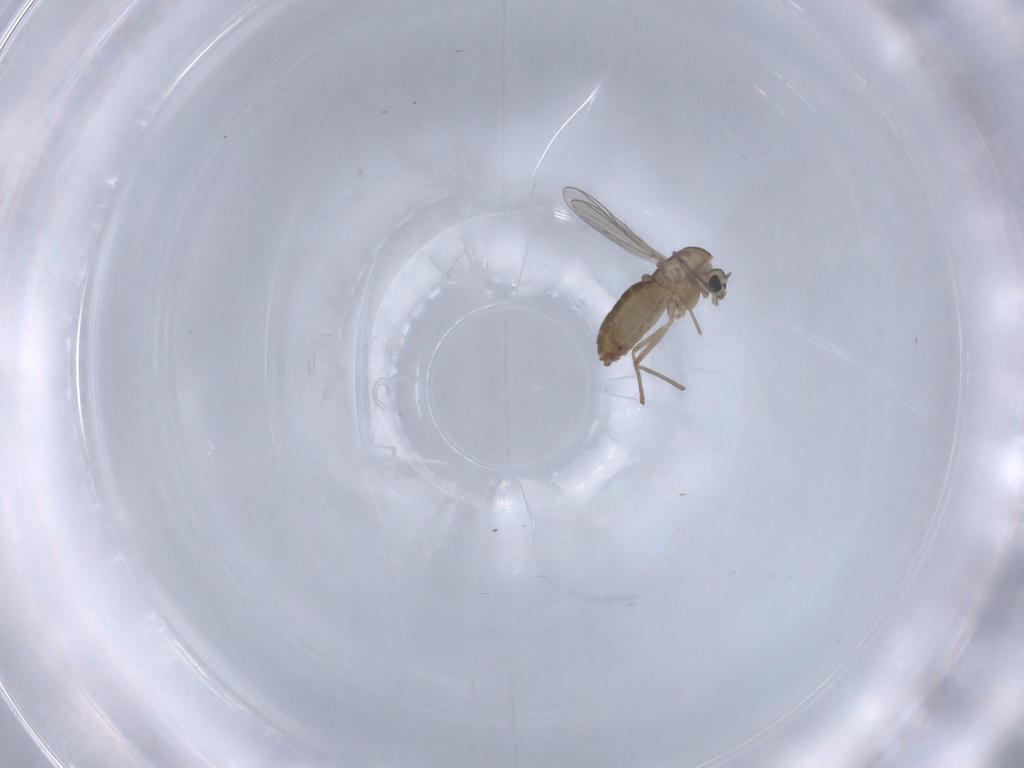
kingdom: Animalia
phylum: Arthropoda
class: Insecta
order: Diptera
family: Chironomidae
